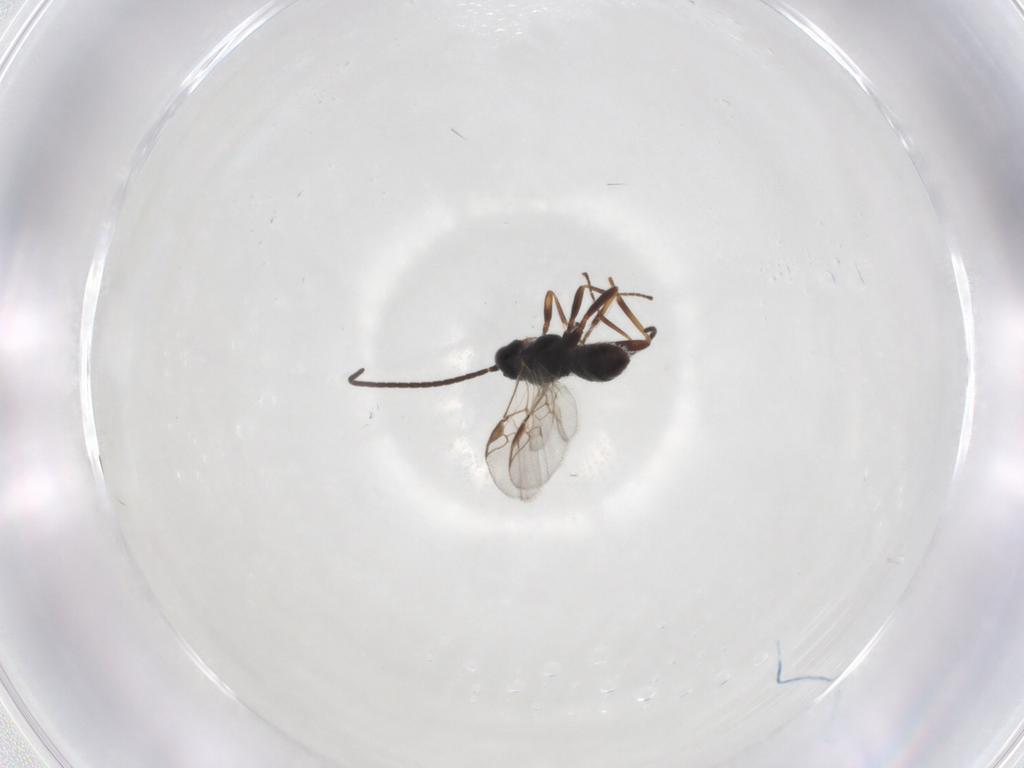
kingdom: Animalia
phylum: Arthropoda
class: Insecta
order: Hymenoptera
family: Braconidae
